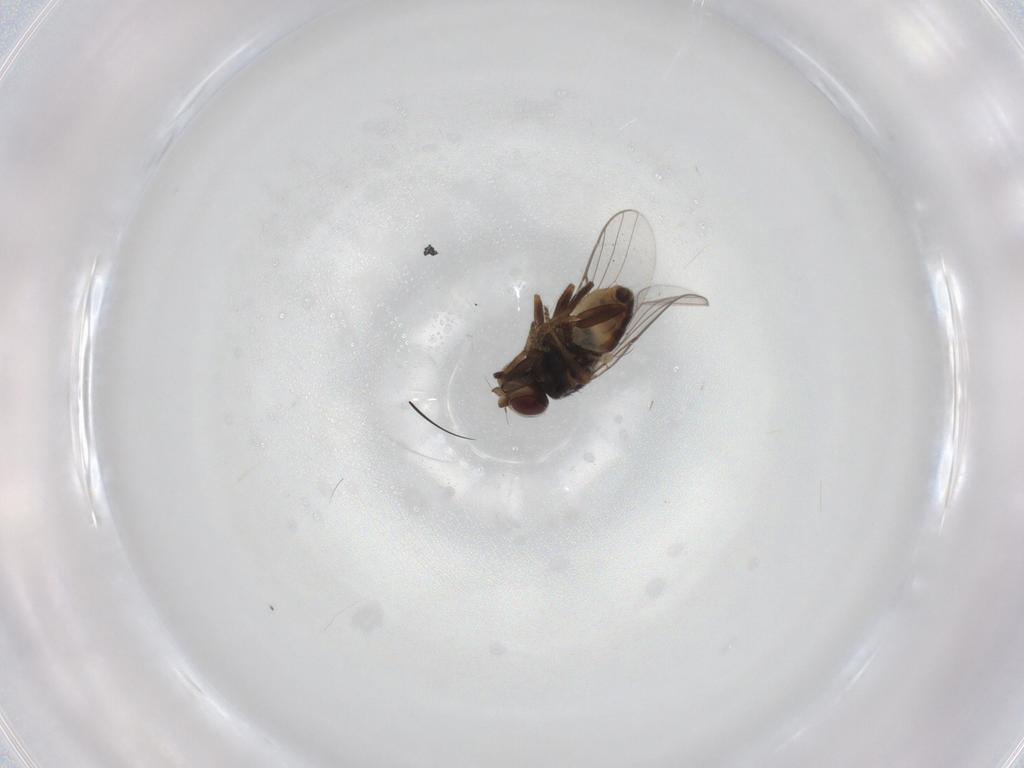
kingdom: Animalia
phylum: Arthropoda
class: Insecta
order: Diptera
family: Chloropidae
